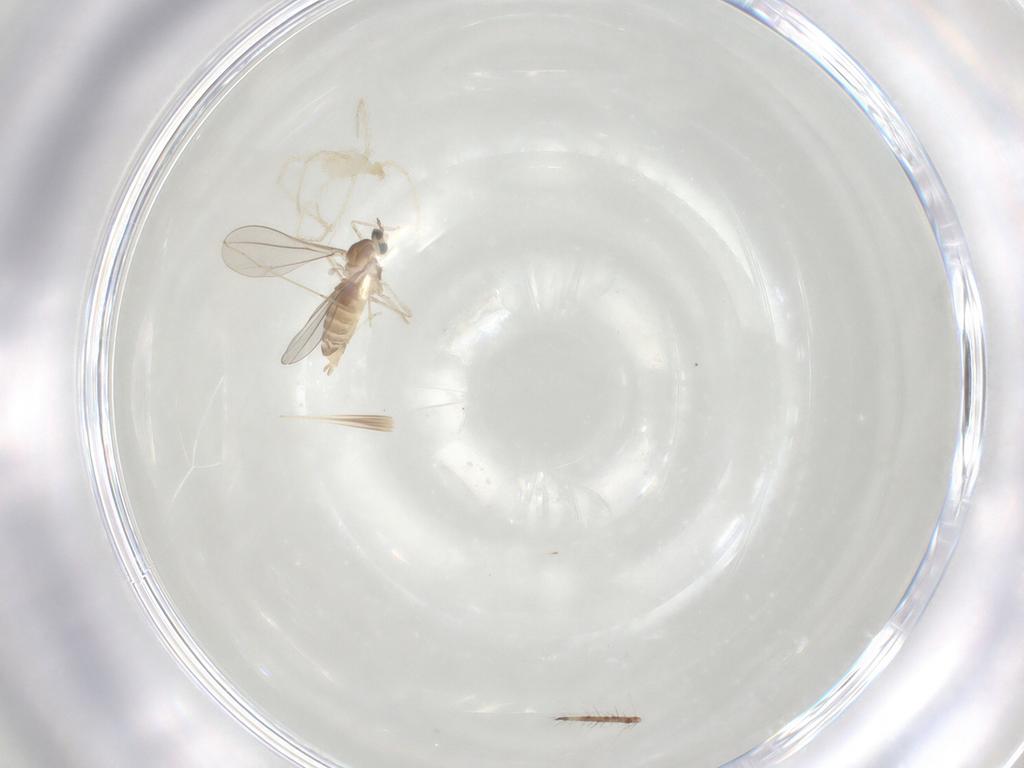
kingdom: Animalia
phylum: Arthropoda
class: Insecta
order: Diptera
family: Cecidomyiidae
